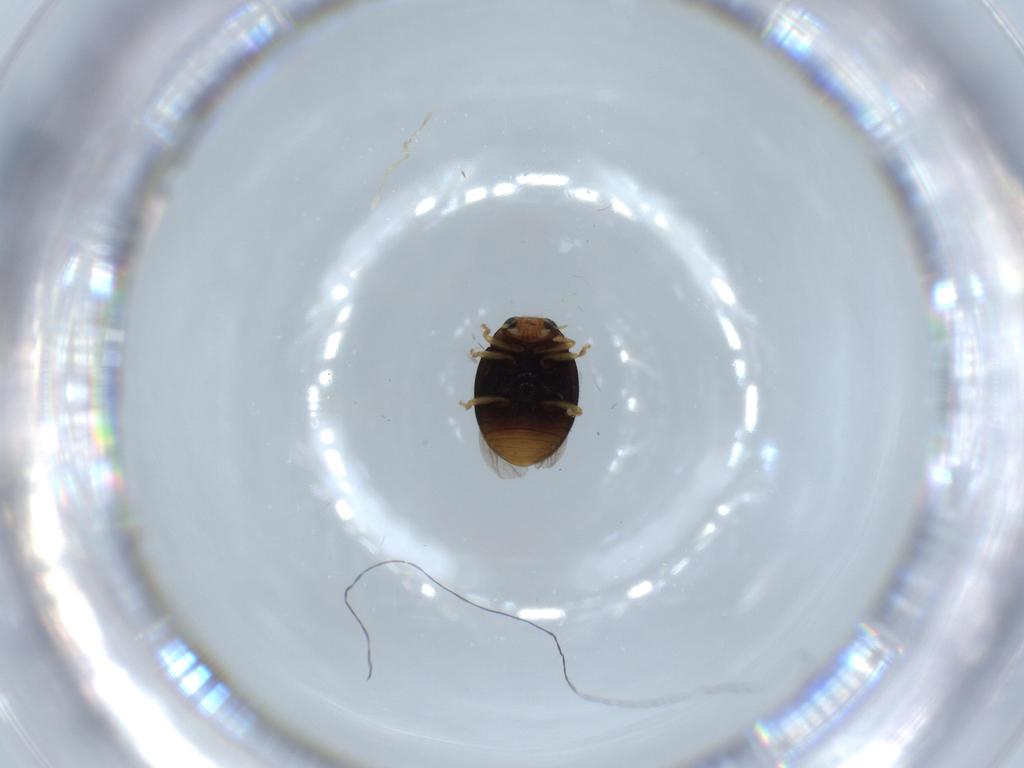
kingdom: Animalia
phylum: Arthropoda
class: Insecta
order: Coleoptera
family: Coccinellidae
